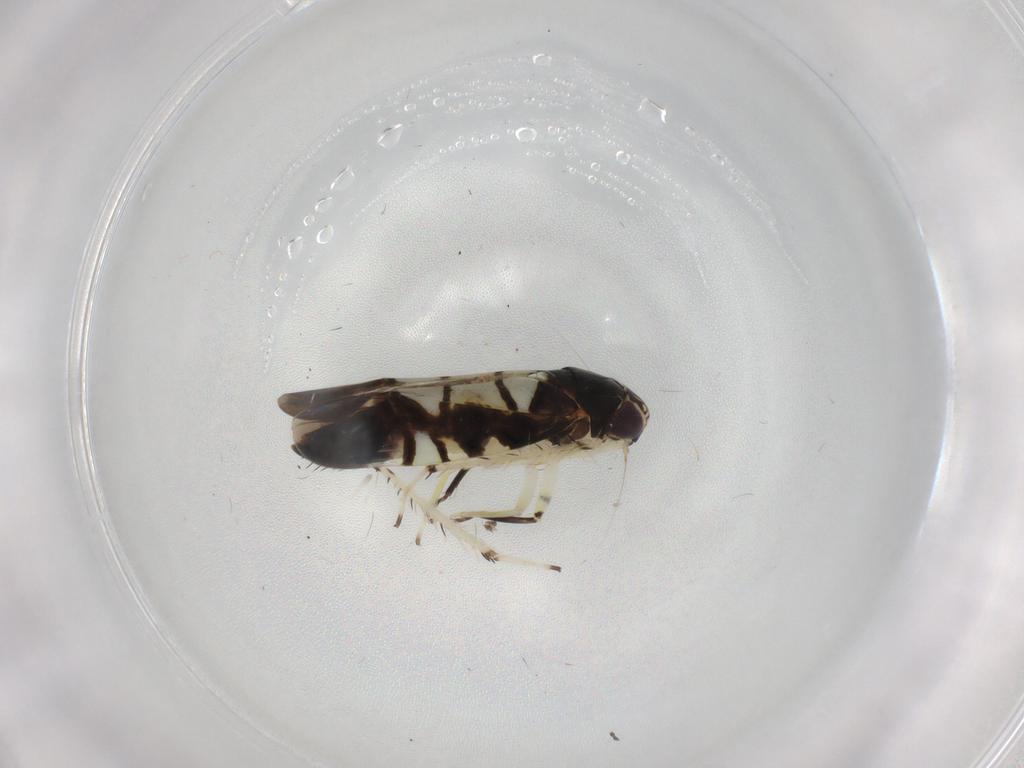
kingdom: Animalia
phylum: Arthropoda
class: Insecta
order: Hemiptera
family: Cicadellidae
